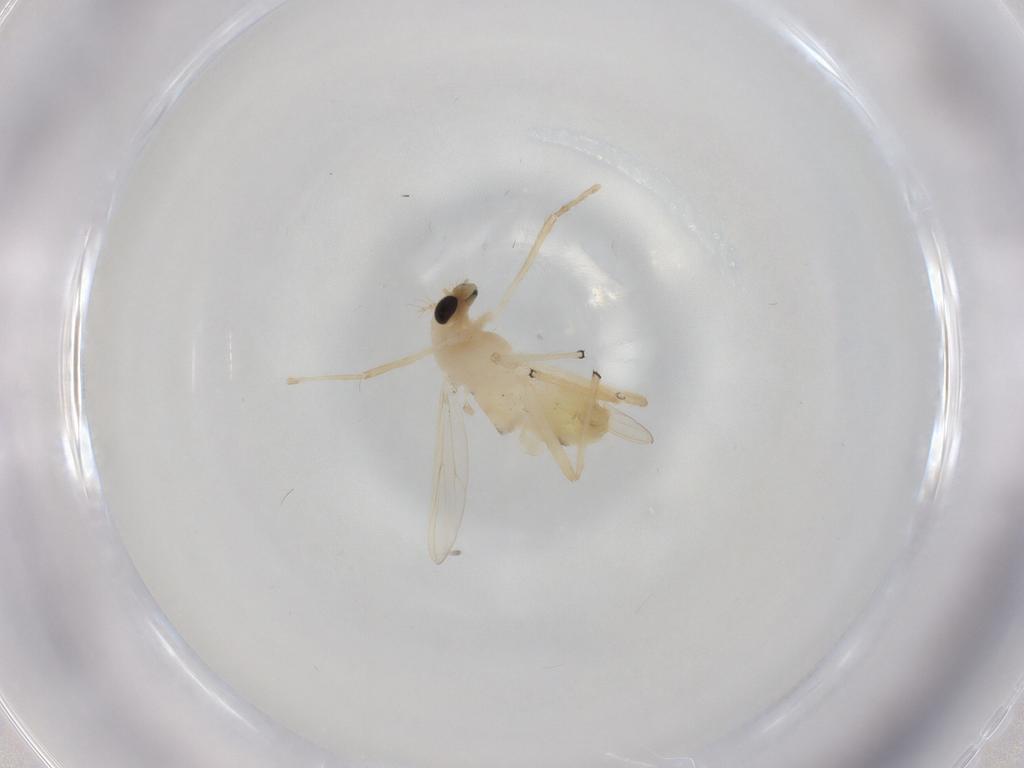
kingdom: Animalia
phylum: Arthropoda
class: Insecta
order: Diptera
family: Chironomidae
